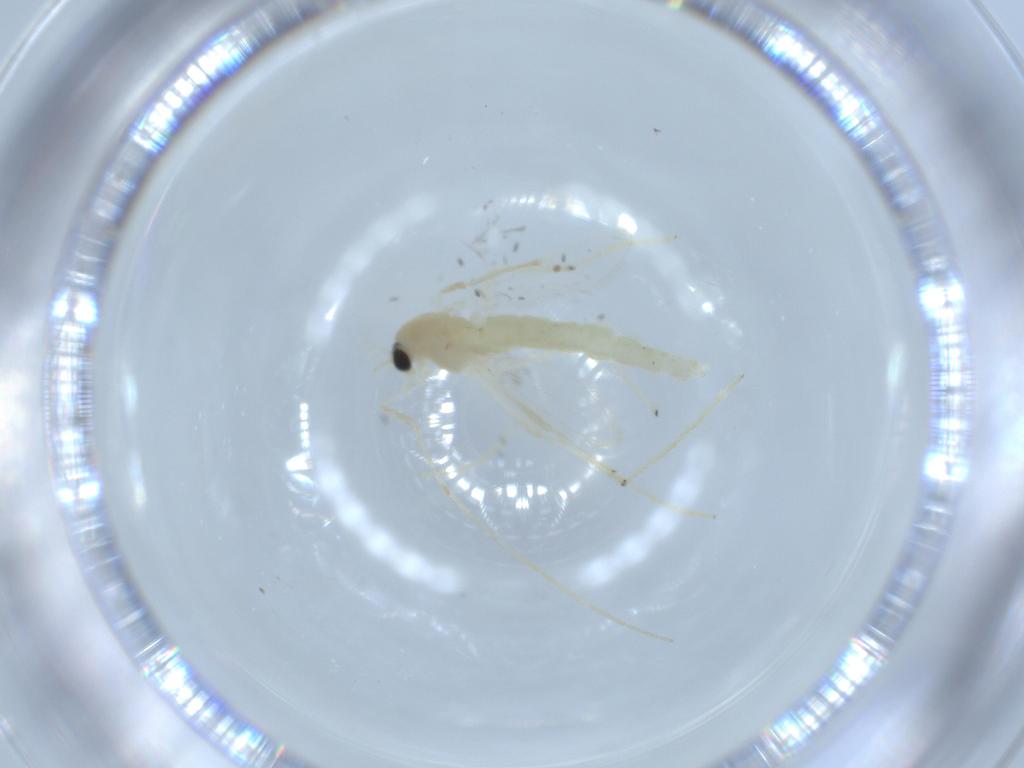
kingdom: Animalia
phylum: Arthropoda
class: Insecta
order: Diptera
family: Chironomidae
